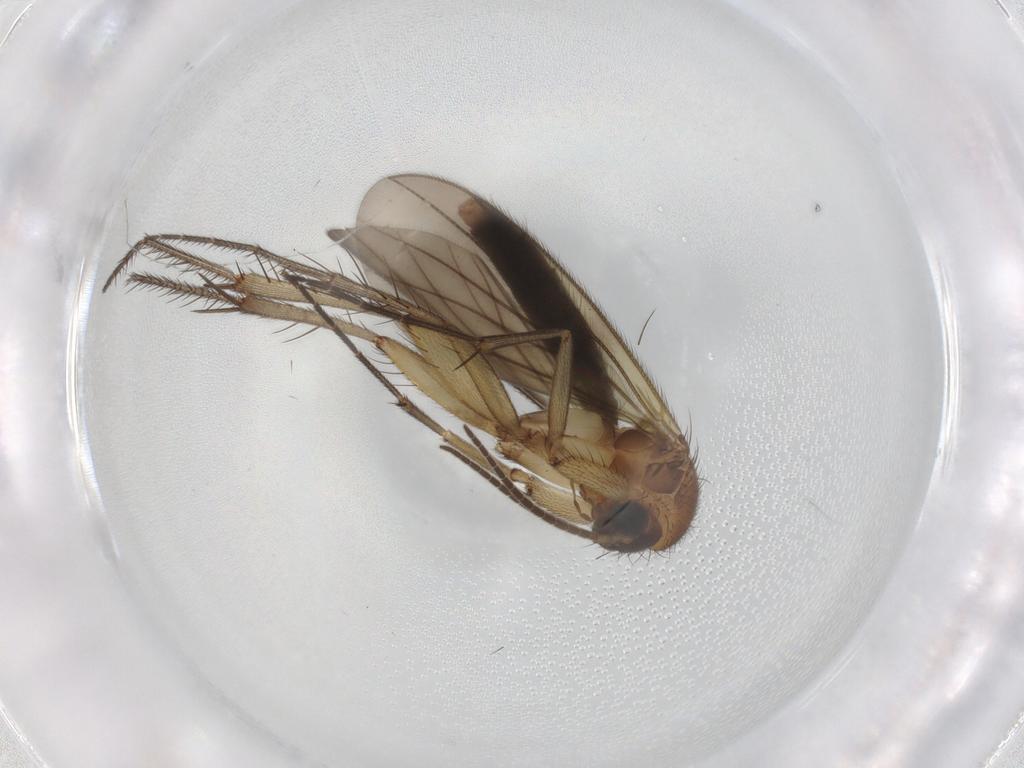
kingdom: Animalia
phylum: Arthropoda
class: Insecta
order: Diptera
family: Mycetophilidae
